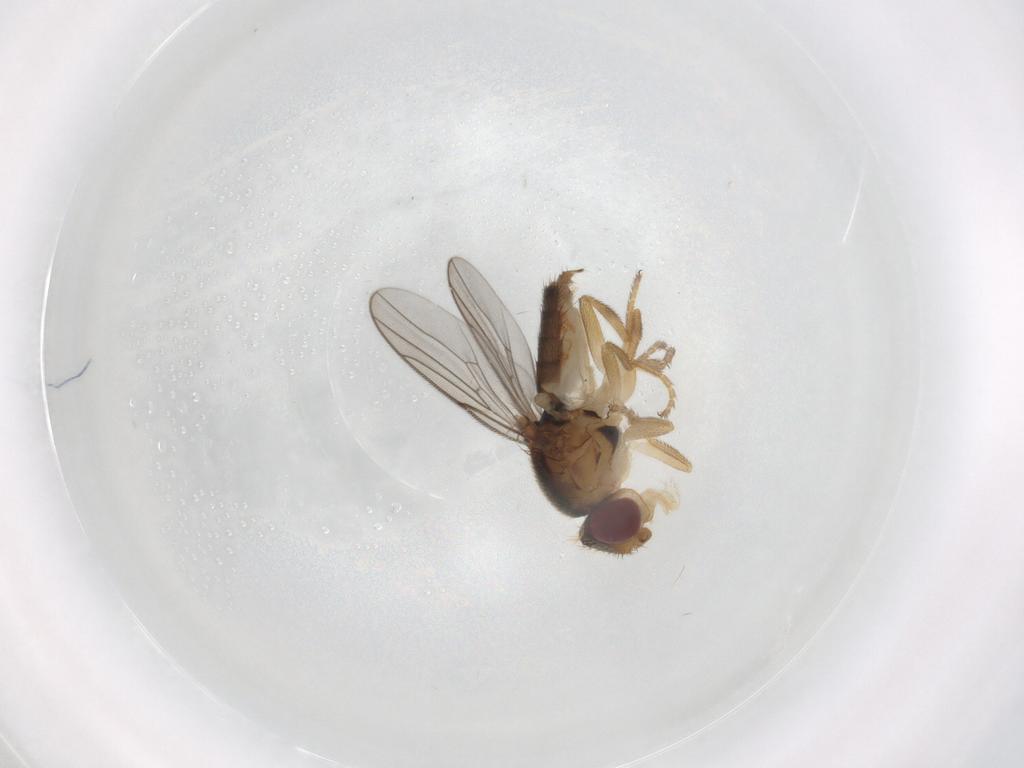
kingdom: Animalia
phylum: Arthropoda
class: Insecta
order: Diptera
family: Chloropidae
